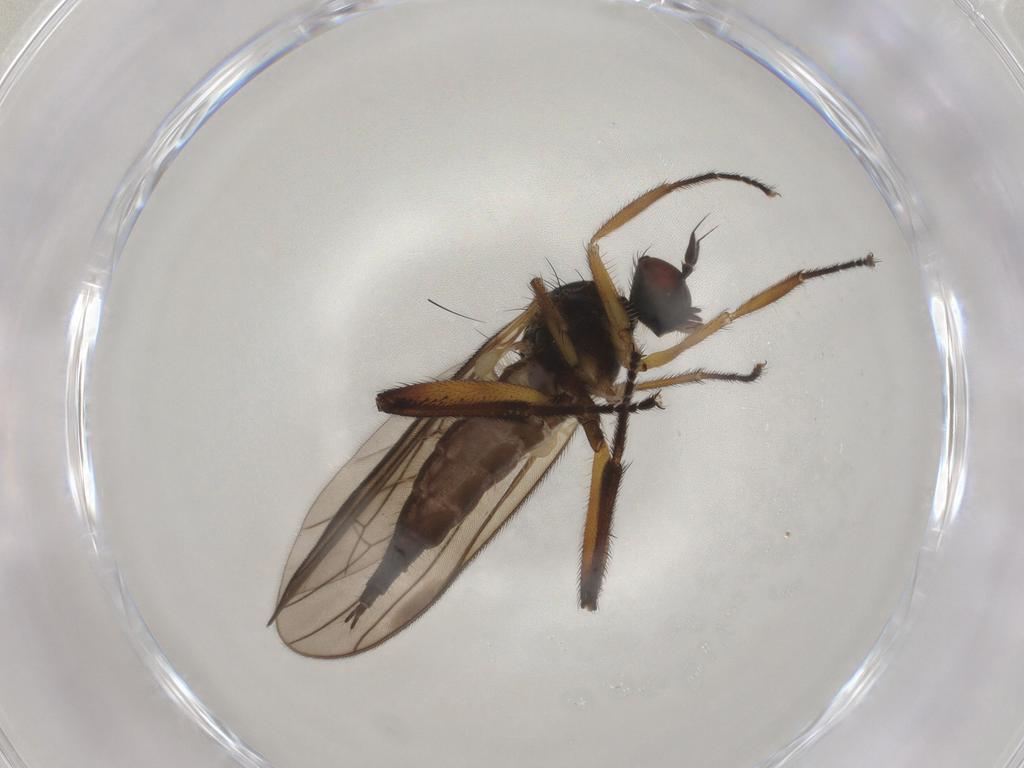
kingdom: Animalia
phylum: Arthropoda
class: Insecta
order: Diptera
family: Hybotidae
